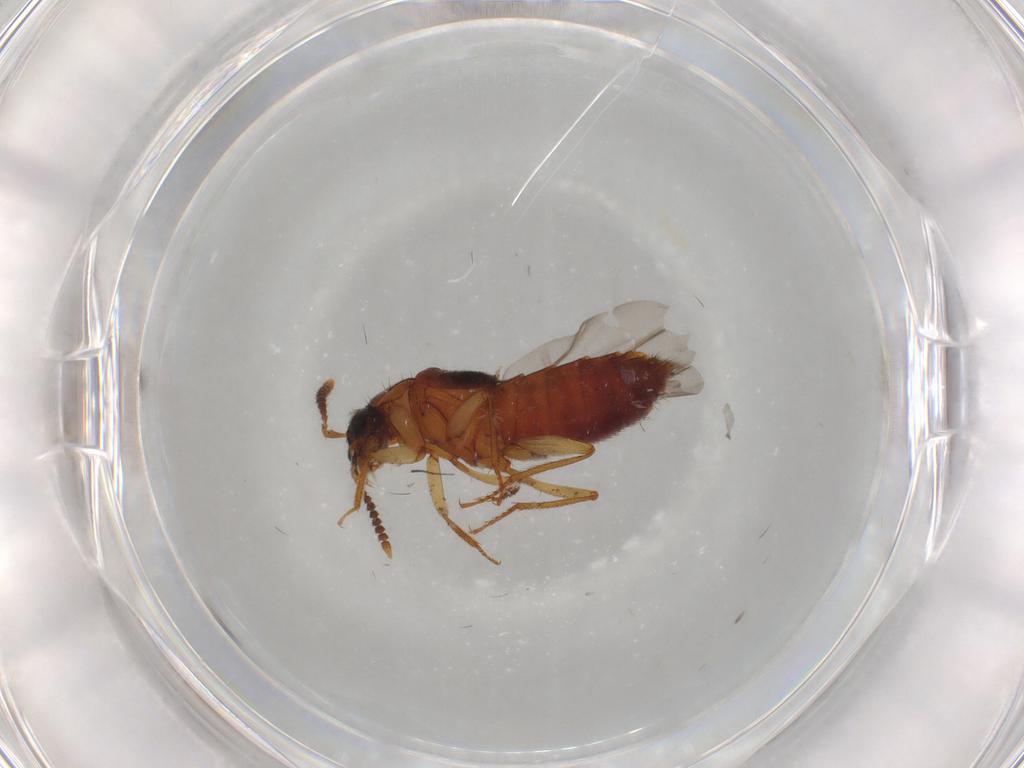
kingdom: Animalia
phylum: Arthropoda
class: Insecta
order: Coleoptera
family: Staphylinidae
